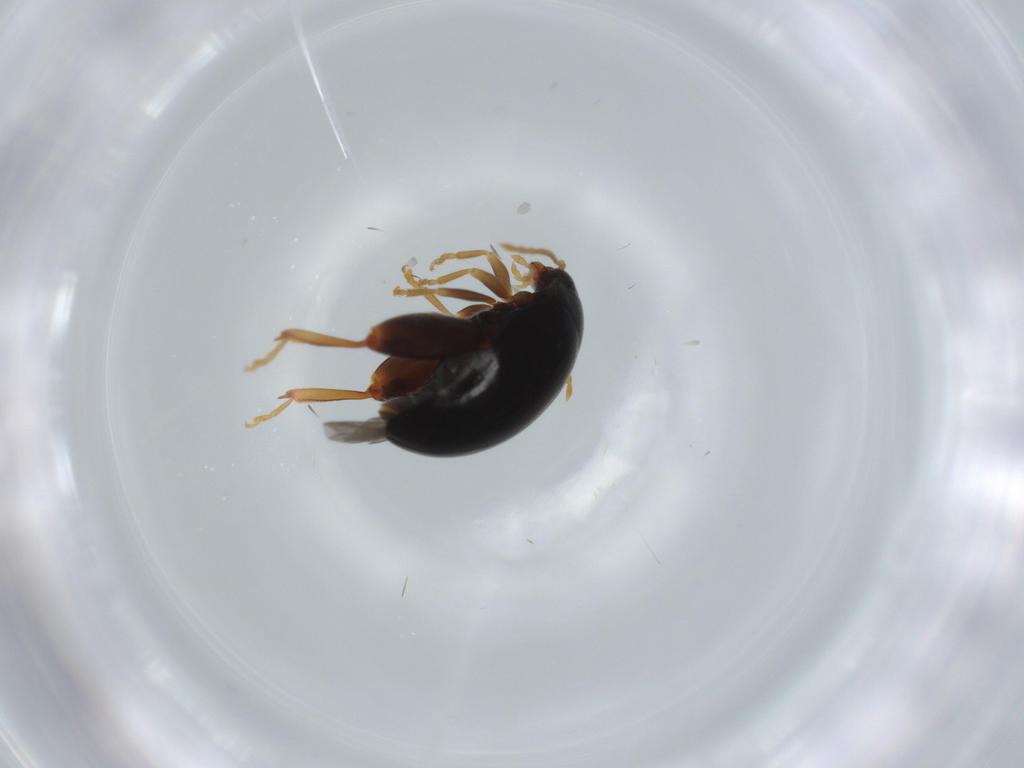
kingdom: Animalia
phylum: Arthropoda
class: Insecta
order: Coleoptera
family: Chrysomelidae
